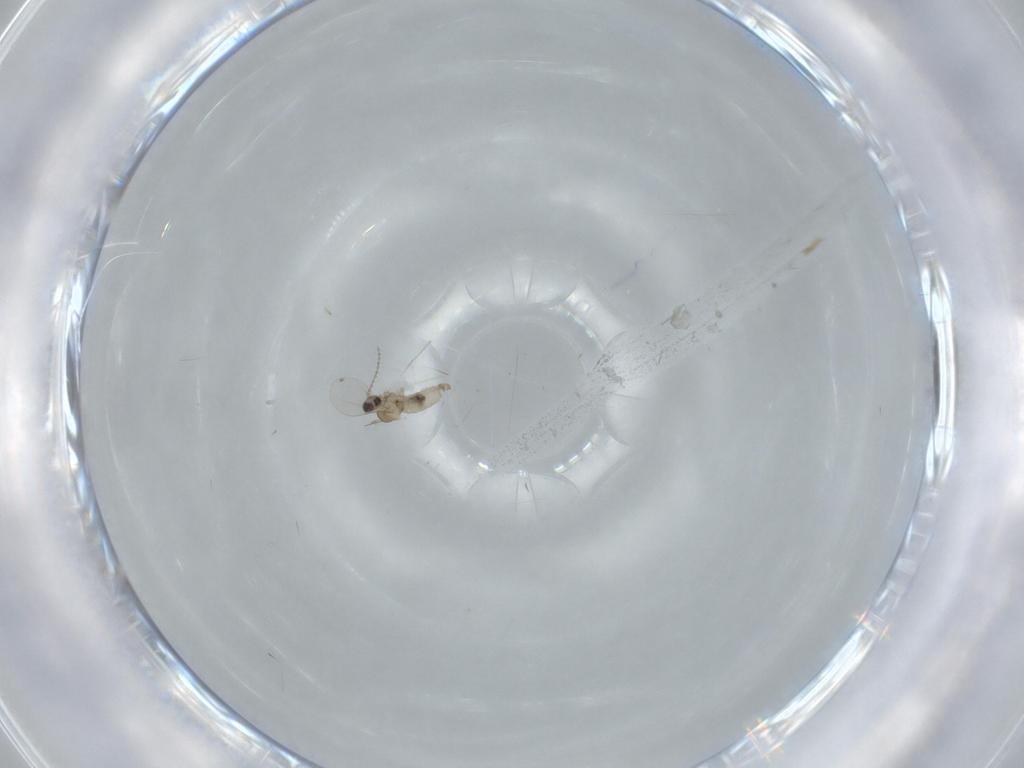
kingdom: Animalia
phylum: Arthropoda
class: Insecta
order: Diptera
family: Cecidomyiidae
